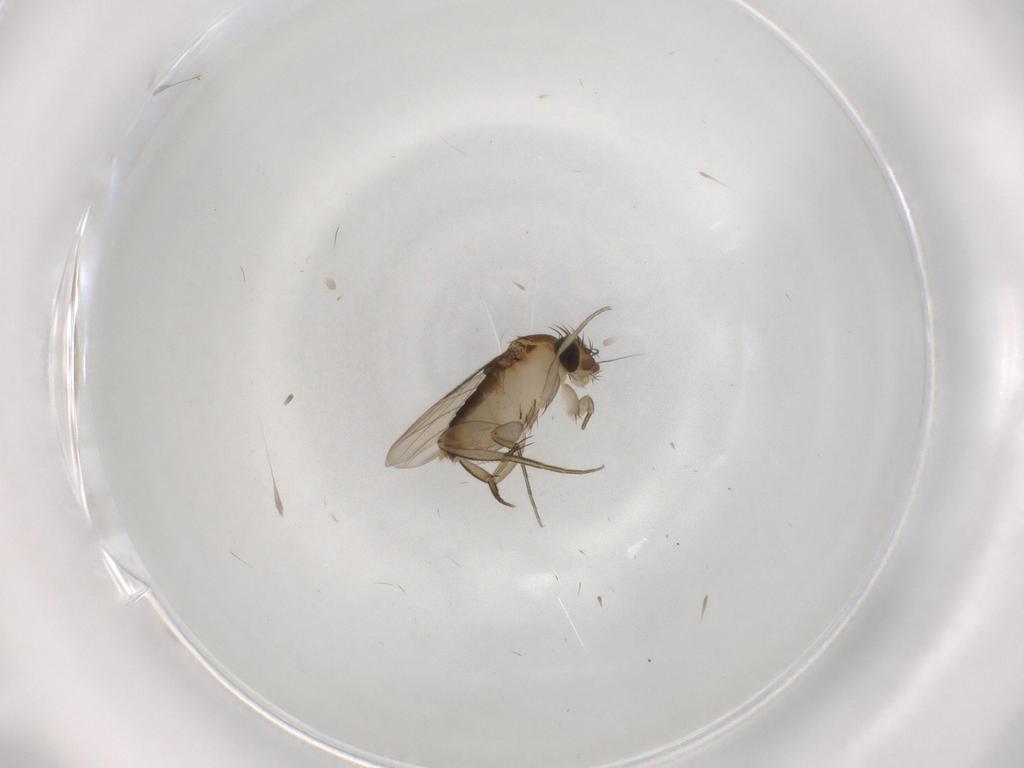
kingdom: Animalia
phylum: Arthropoda
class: Insecta
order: Diptera
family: Phoridae
